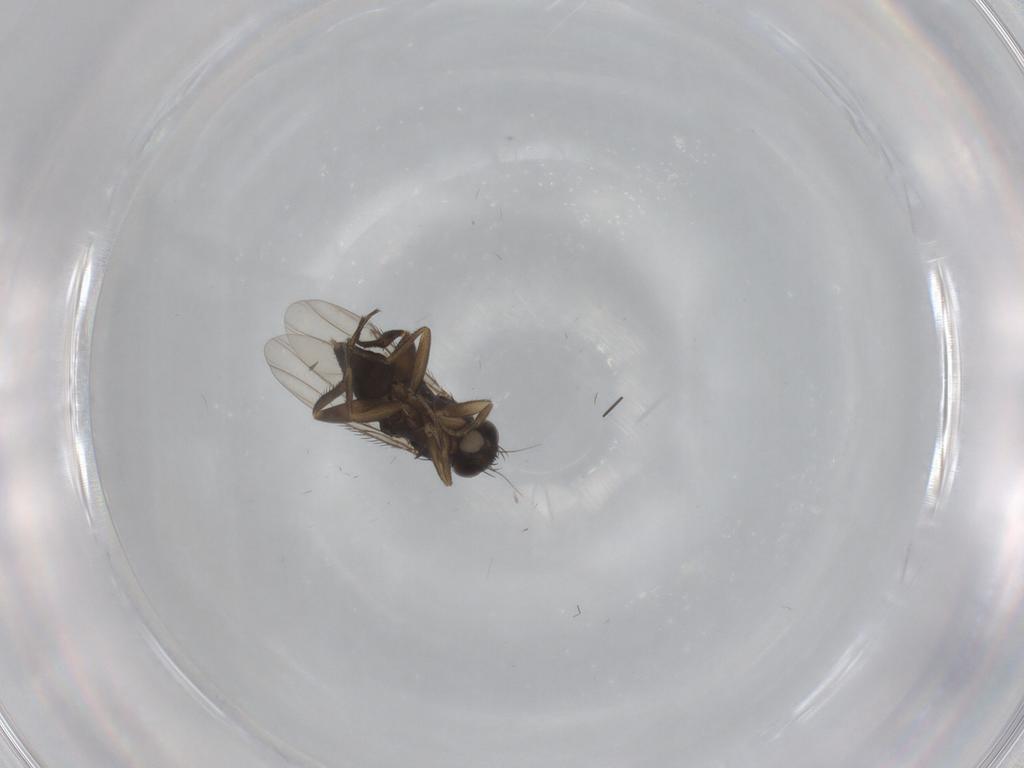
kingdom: Animalia
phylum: Arthropoda
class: Insecta
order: Diptera
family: Phoridae
